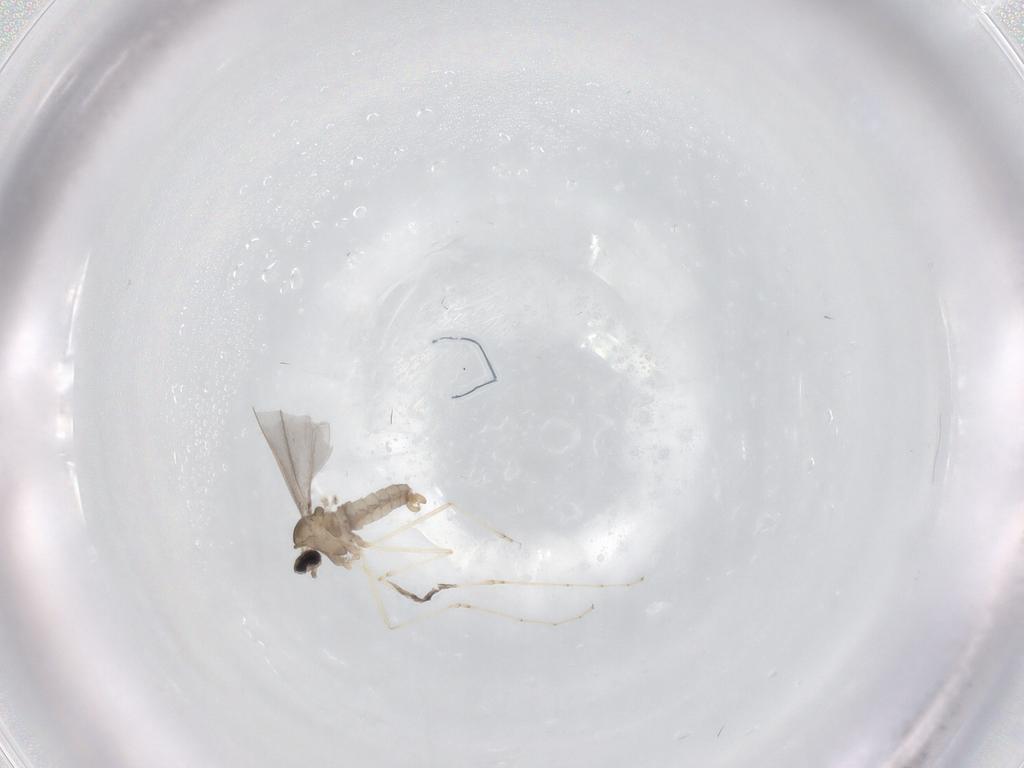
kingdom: Animalia
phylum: Arthropoda
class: Insecta
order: Diptera
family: Cecidomyiidae
